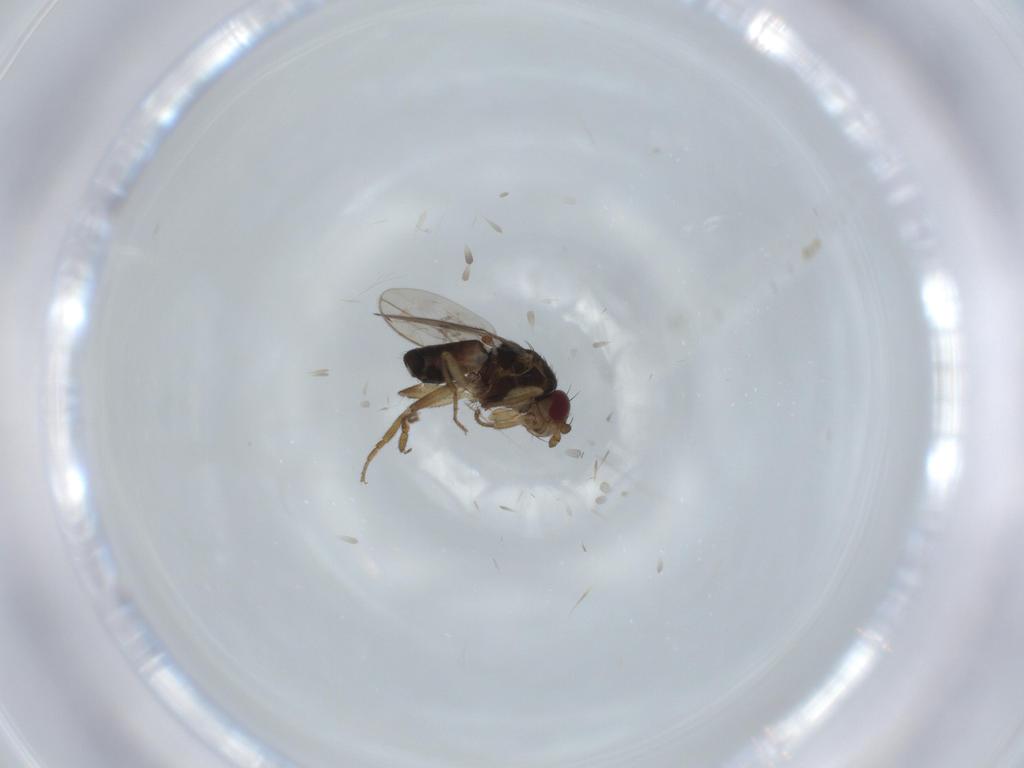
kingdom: Animalia
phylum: Arthropoda
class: Insecta
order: Diptera
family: Sphaeroceridae
